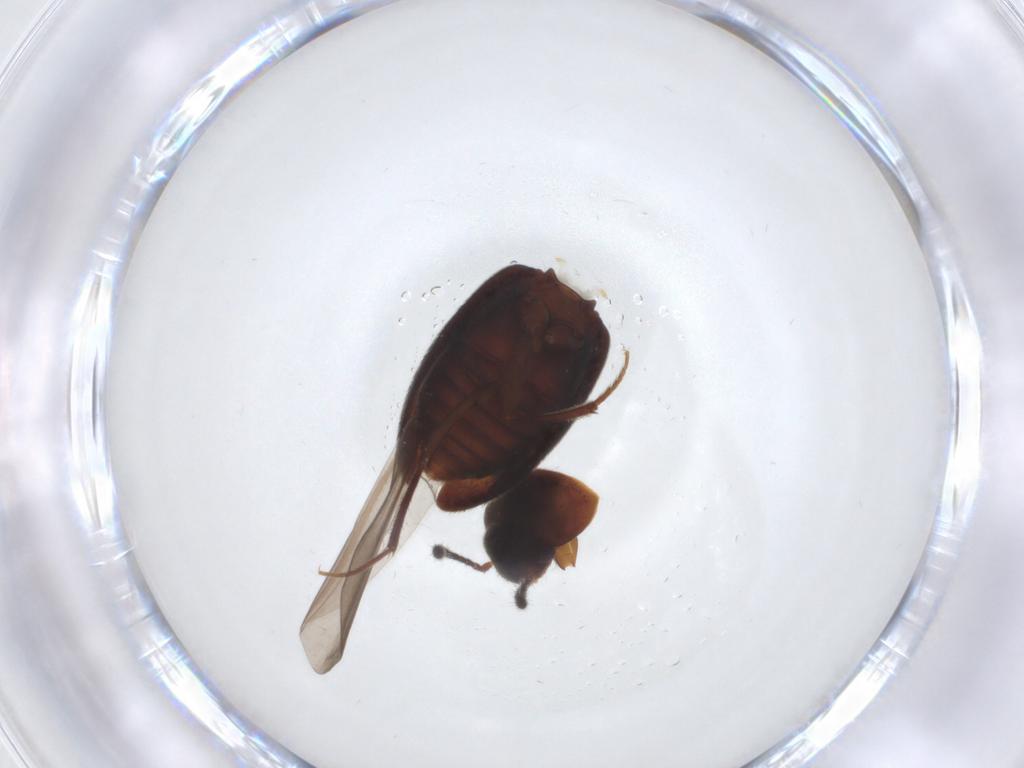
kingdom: Animalia
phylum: Arthropoda
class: Insecta
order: Coleoptera
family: Leiodidae
